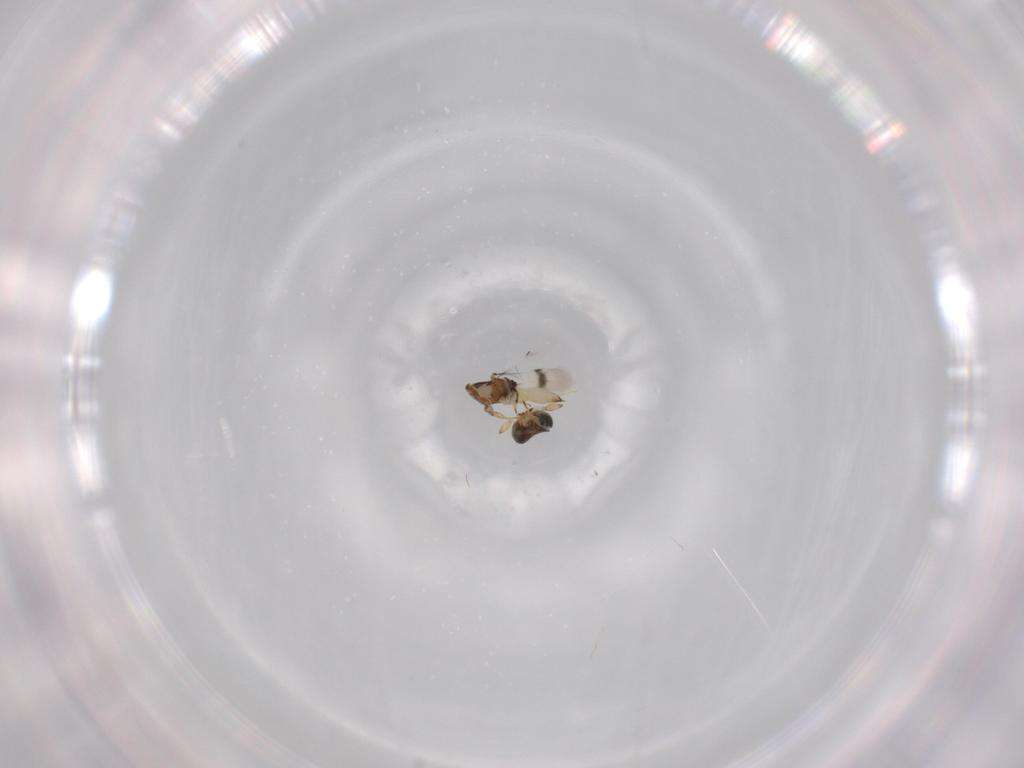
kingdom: Animalia
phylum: Arthropoda
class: Insecta
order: Hymenoptera
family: Scelionidae
